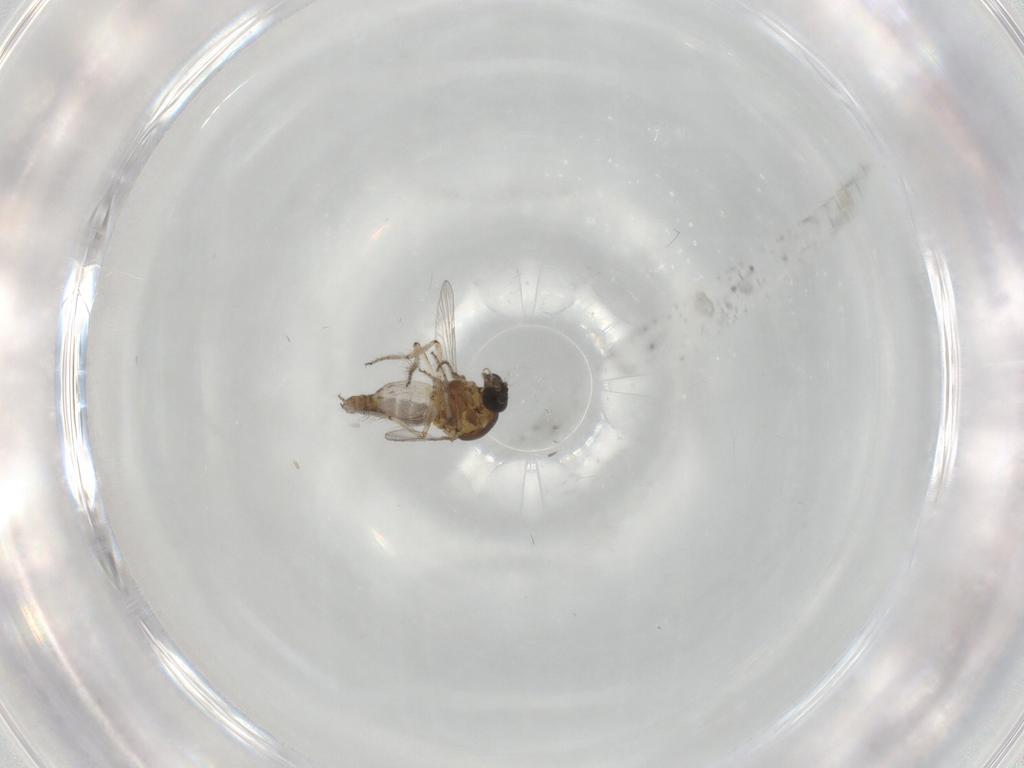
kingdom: Animalia
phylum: Arthropoda
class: Insecta
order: Diptera
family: Ceratopogonidae
